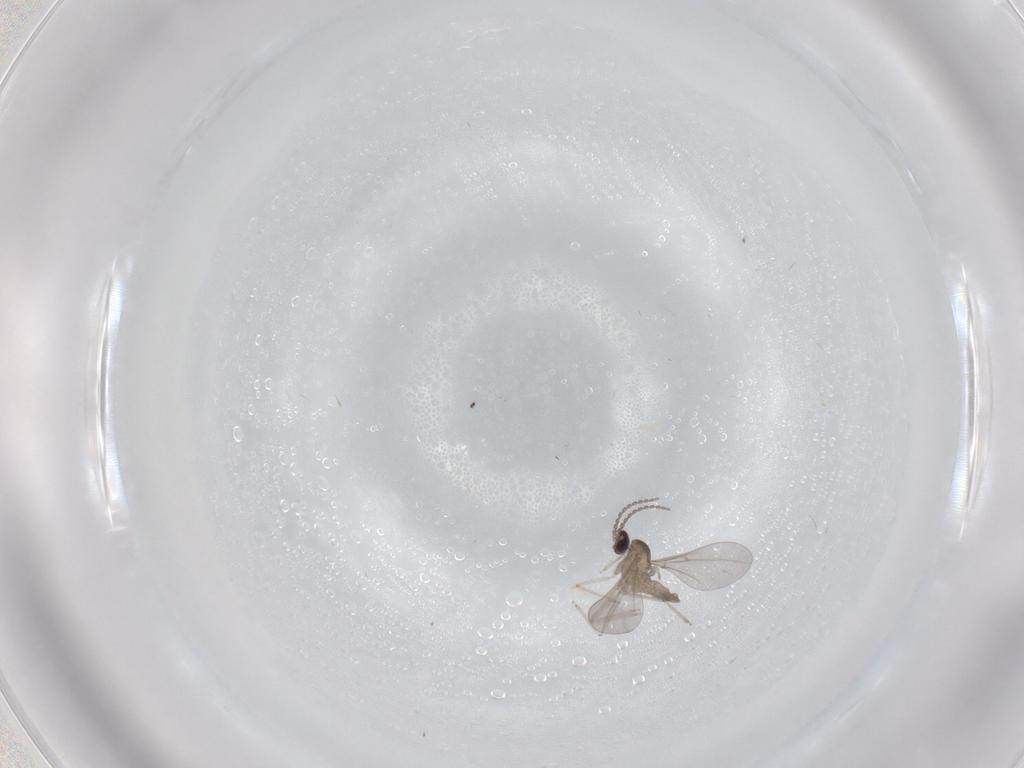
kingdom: Animalia
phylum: Arthropoda
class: Insecta
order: Diptera
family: Cecidomyiidae
